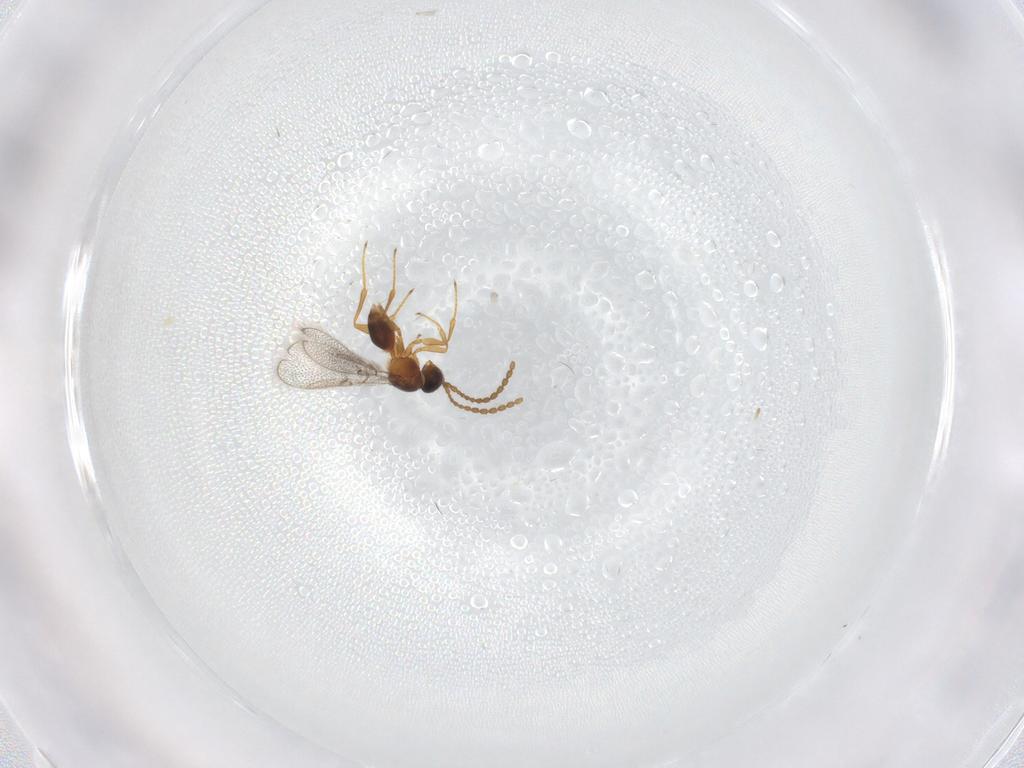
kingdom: Animalia
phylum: Arthropoda
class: Insecta
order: Hymenoptera
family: Figitidae
